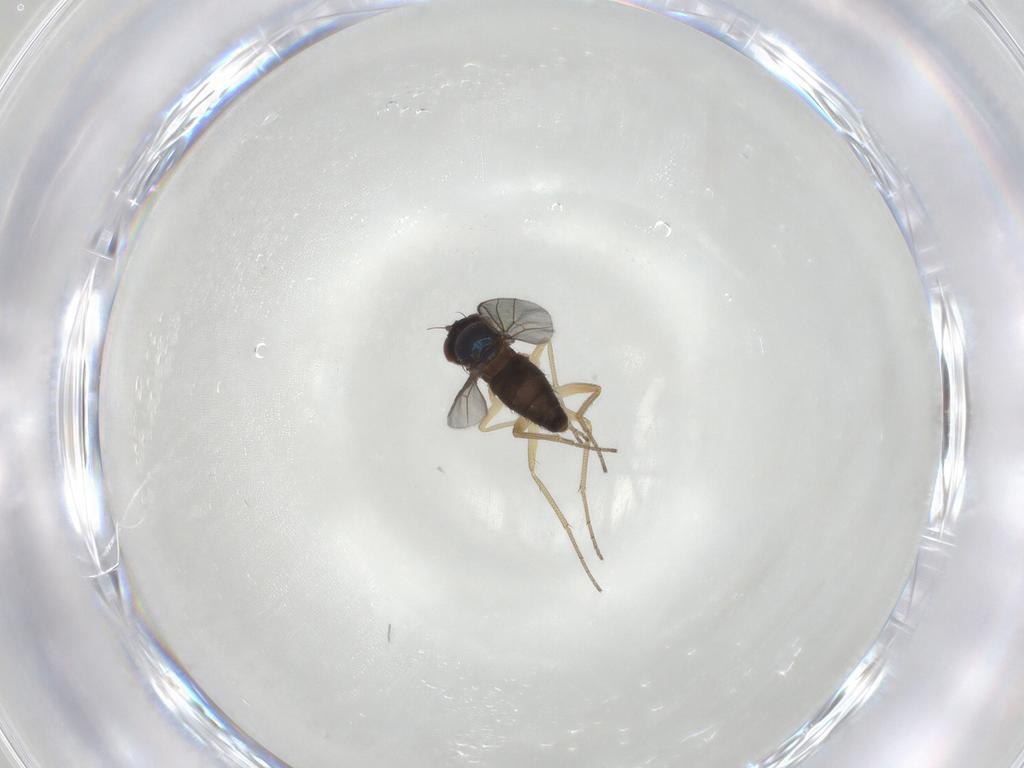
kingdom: Animalia
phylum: Arthropoda
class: Insecta
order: Diptera
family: Dolichopodidae
